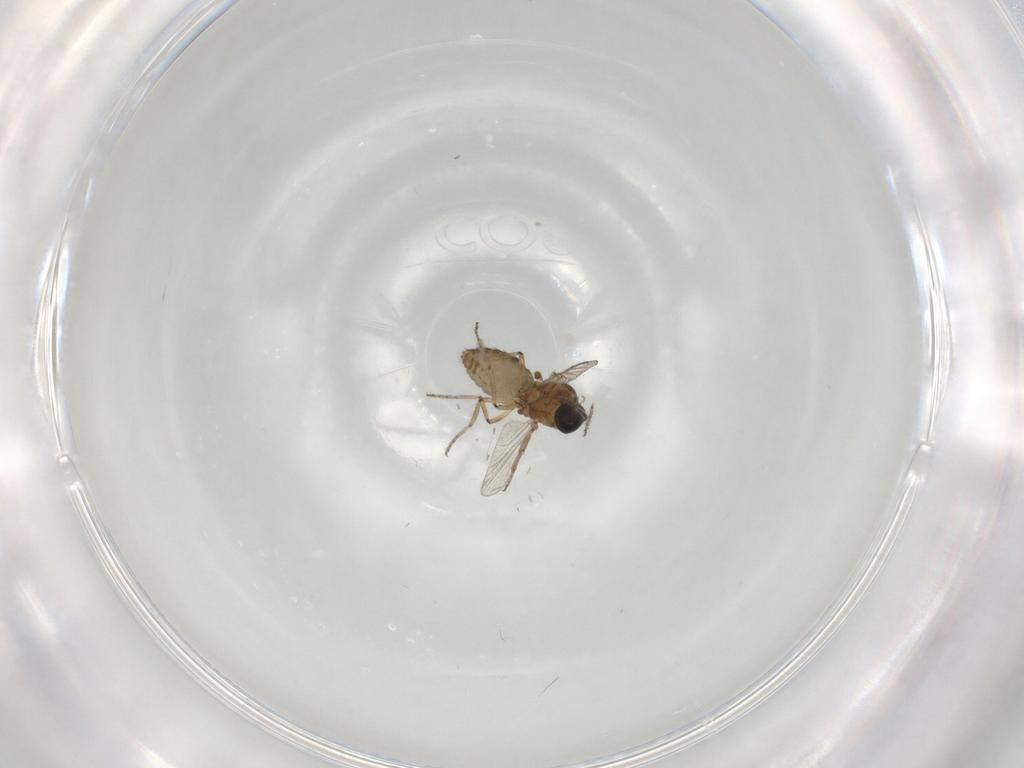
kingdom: Animalia
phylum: Arthropoda
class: Insecta
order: Diptera
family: Ceratopogonidae
